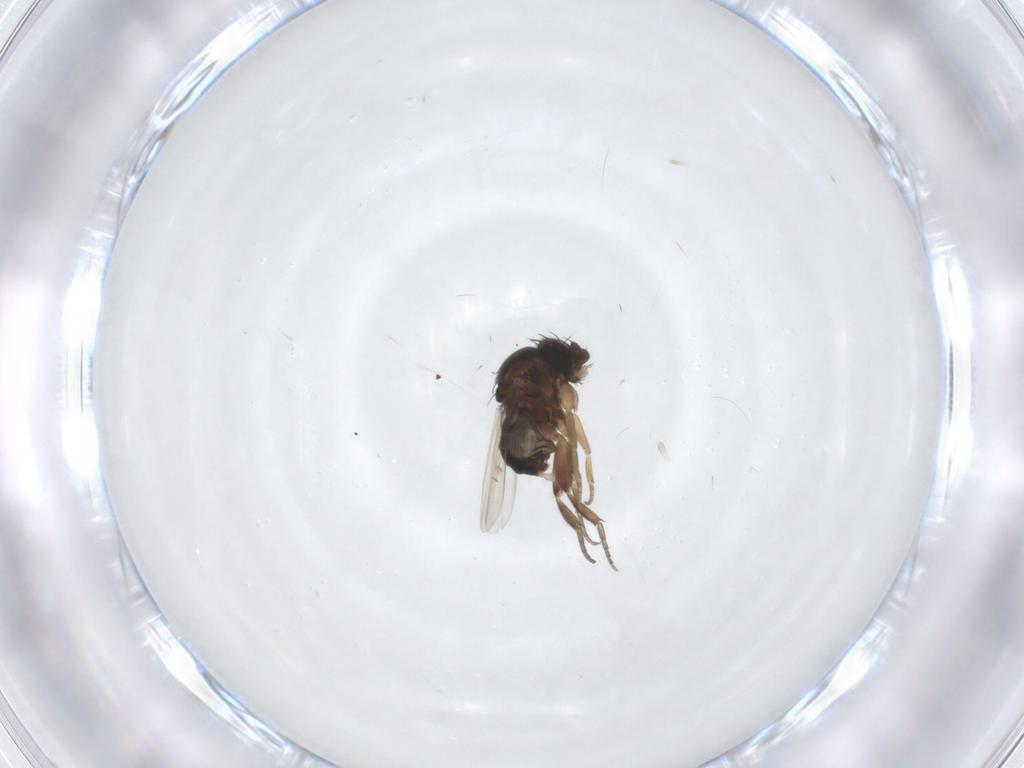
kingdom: Animalia
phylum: Arthropoda
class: Insecta
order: Diptera
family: Phoridae
